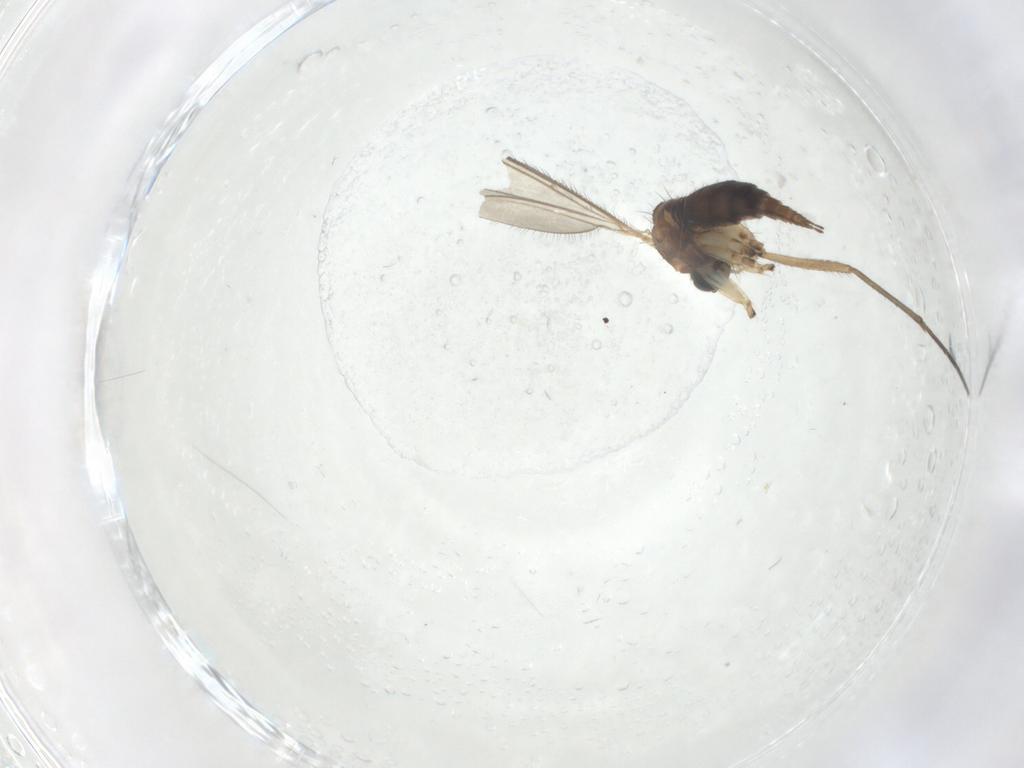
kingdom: Animalia
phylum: Arthropoda
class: Insecta
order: Diptera
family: Sciaridae
